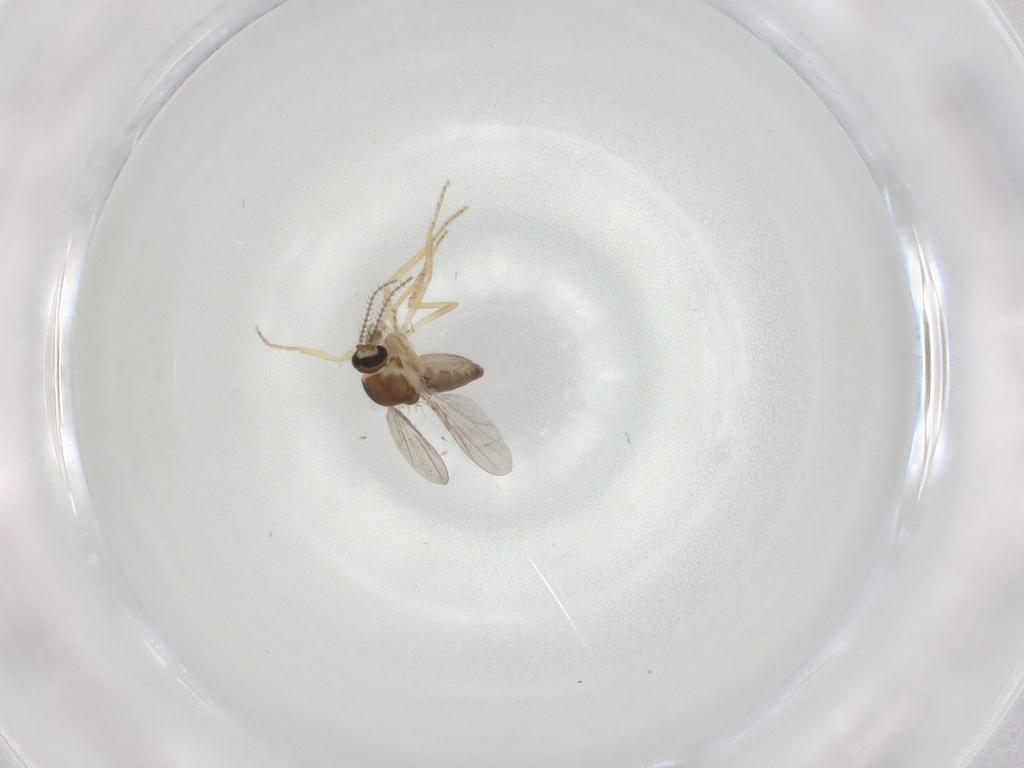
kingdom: Animalia
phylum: Arthropoda
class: Insecta
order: Diptera
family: Ceratopogonidae
